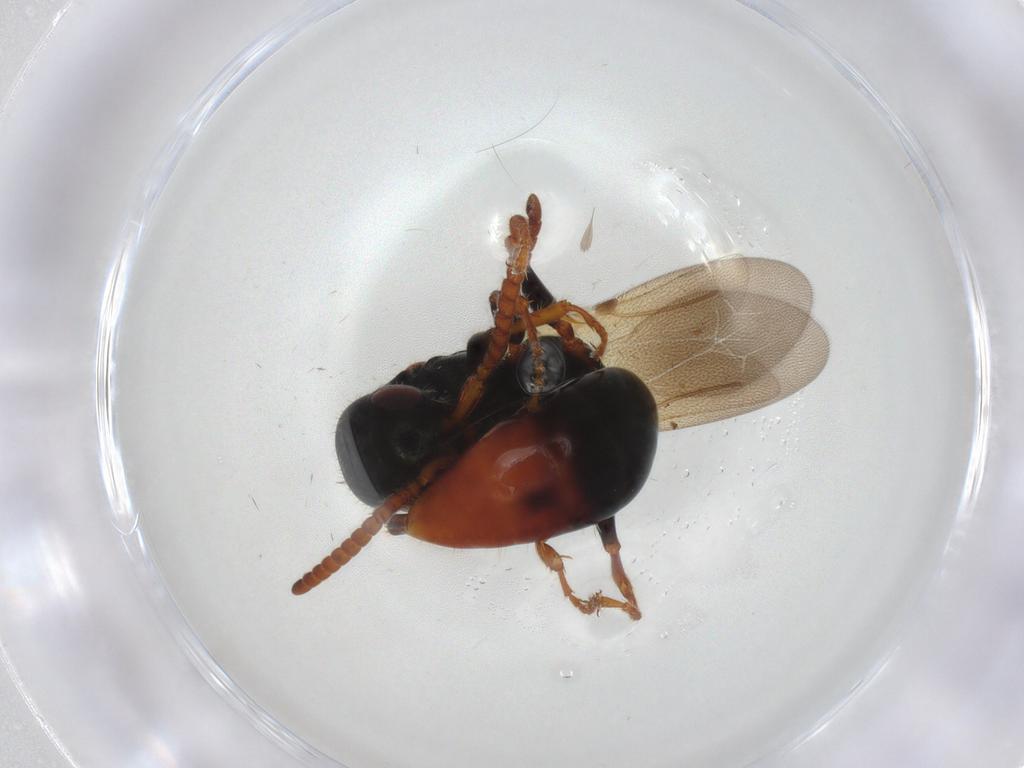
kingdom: Animalia
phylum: Arthropoda
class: Insecta
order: Hymenoptera
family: Bethylidae
